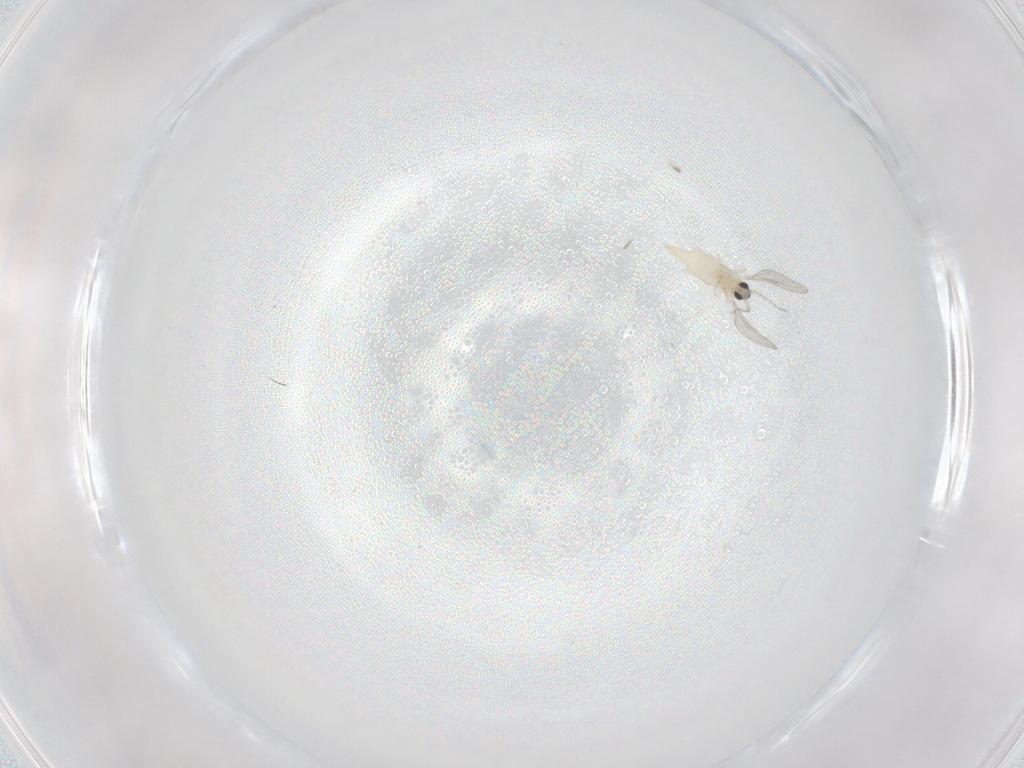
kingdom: Animalia
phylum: Arthropoda
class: Insecta
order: Diptera
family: Cecidomyiidae
